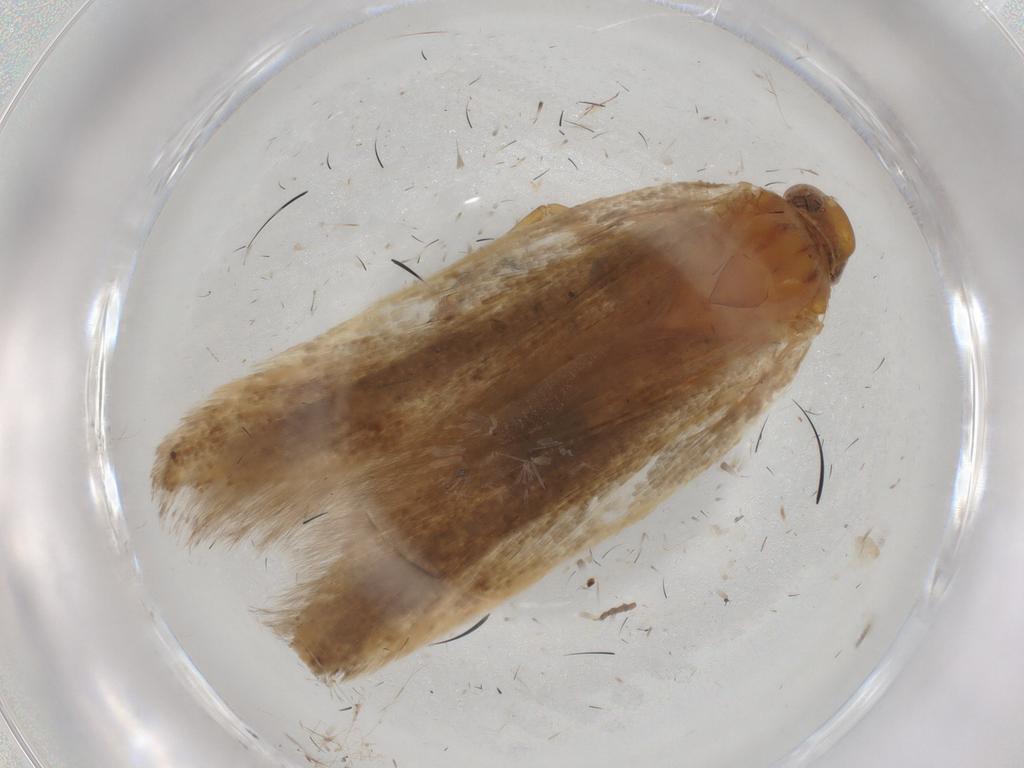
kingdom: Animalia
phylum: Arthropoda
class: Insecta
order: Lepidoptera
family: Gelechiidae
